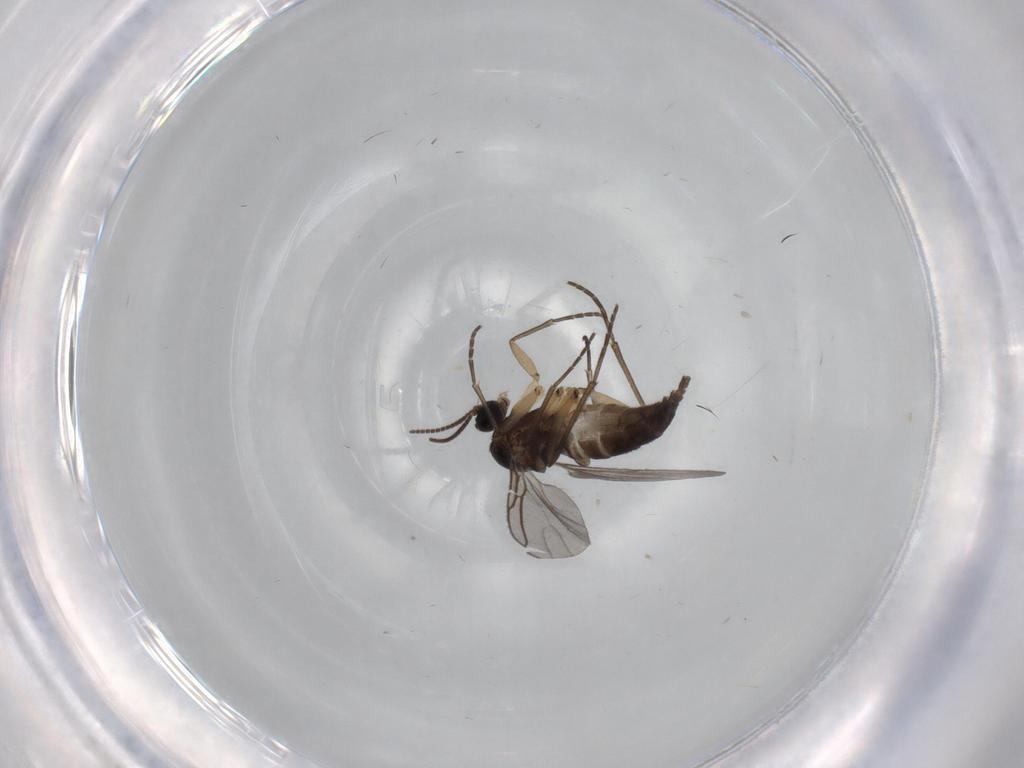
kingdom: Animalia
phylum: Arthropoda
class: Insecta
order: Diptera
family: Sciaridae
